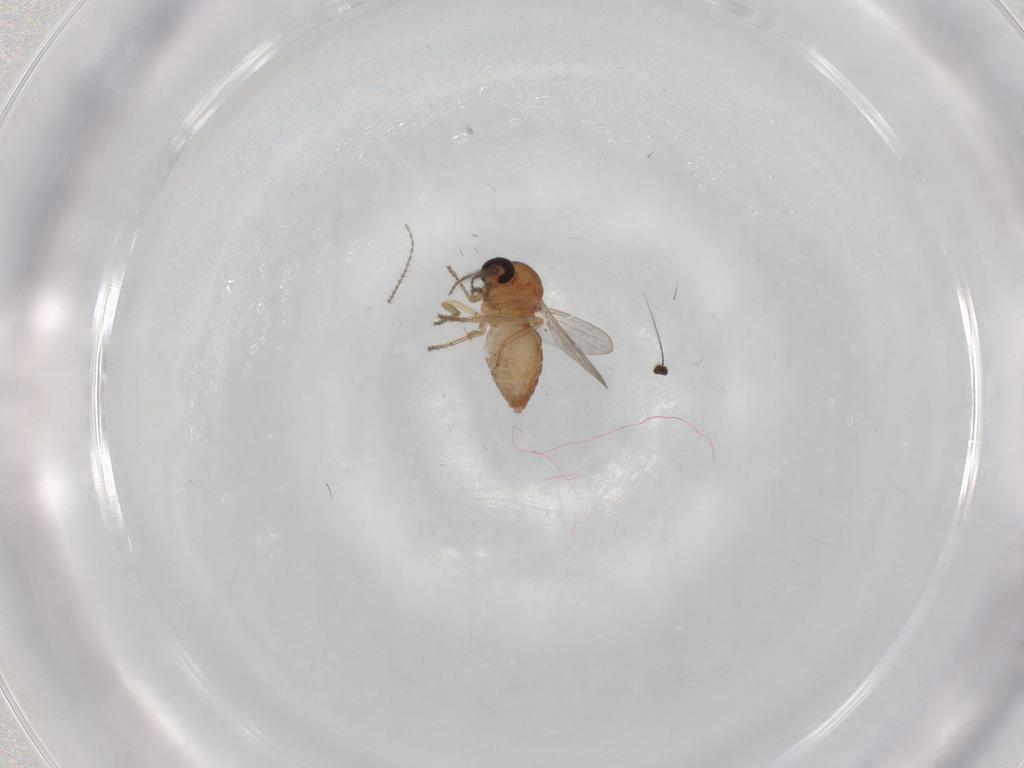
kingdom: Animalia
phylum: Arthropoda
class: Insecta
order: Diptera
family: Ceratopogonidae
